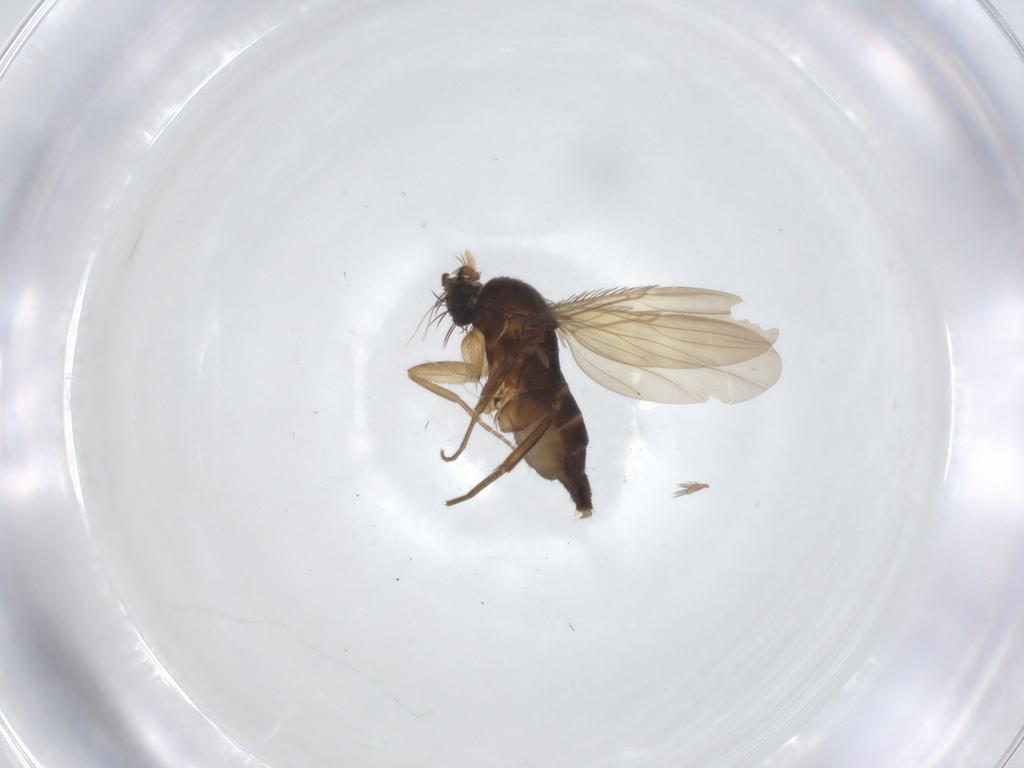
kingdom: Animalia
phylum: Arthropoda
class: Insecta
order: Diptera
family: Phoridae
